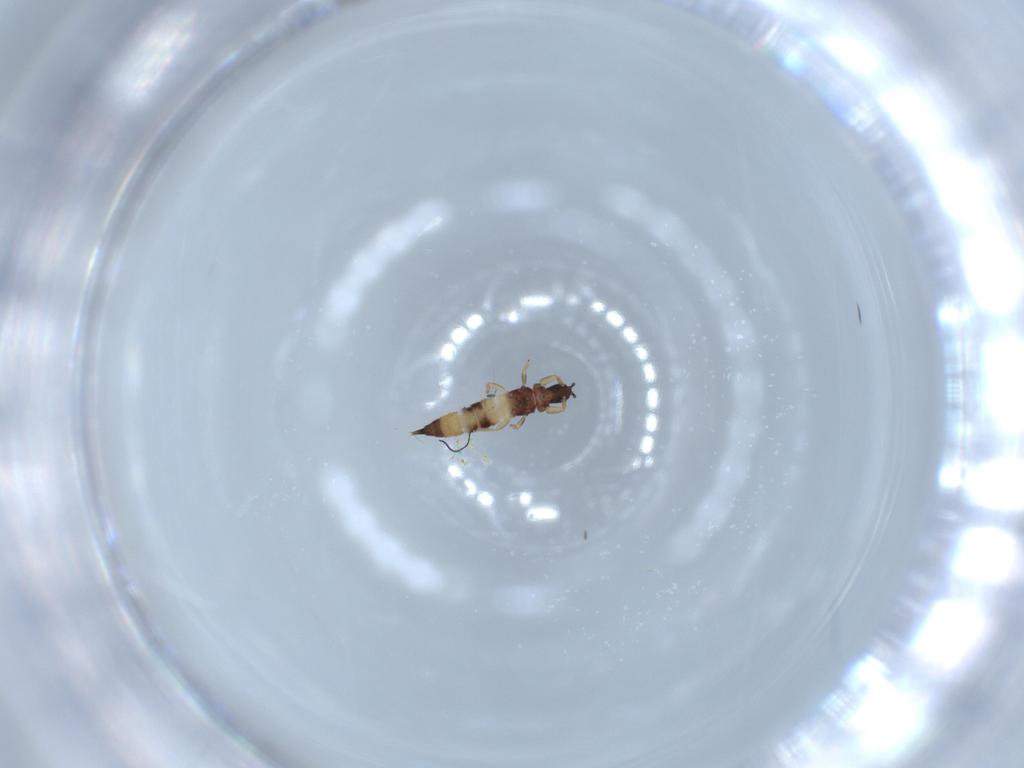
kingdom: Animalia
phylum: Arthropoda
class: Insecta
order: Thysanoptera
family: Phlaeothripidae
